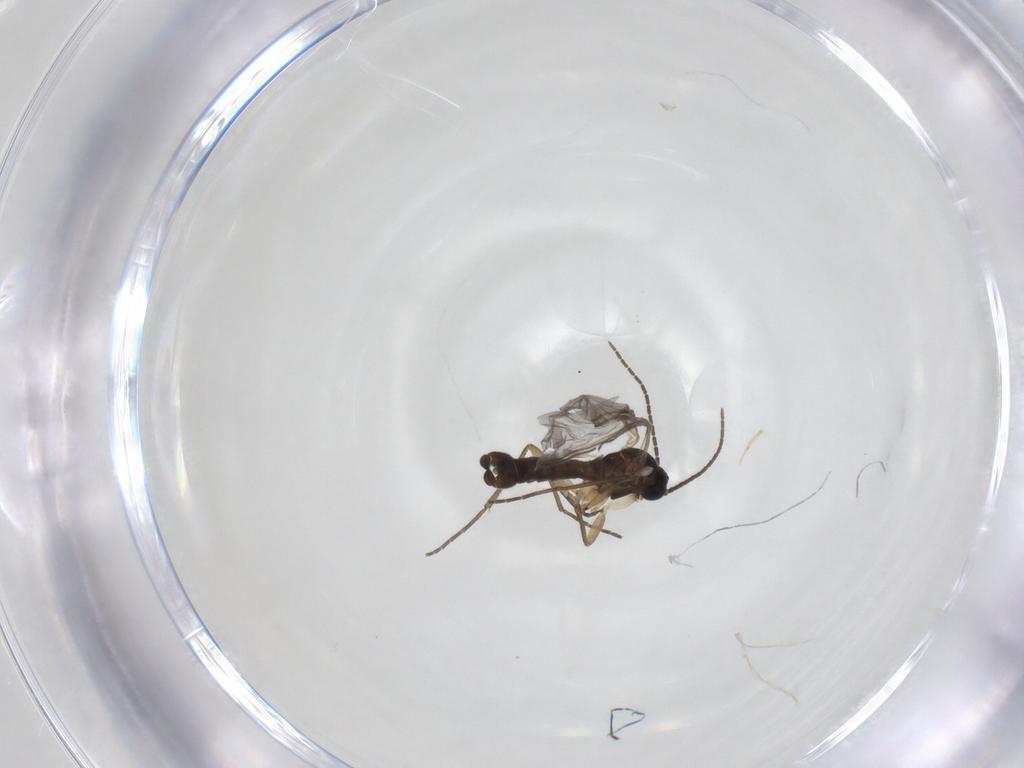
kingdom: Animalia
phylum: Arthropoda
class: Insecta
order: Diptera
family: Sciaridae
